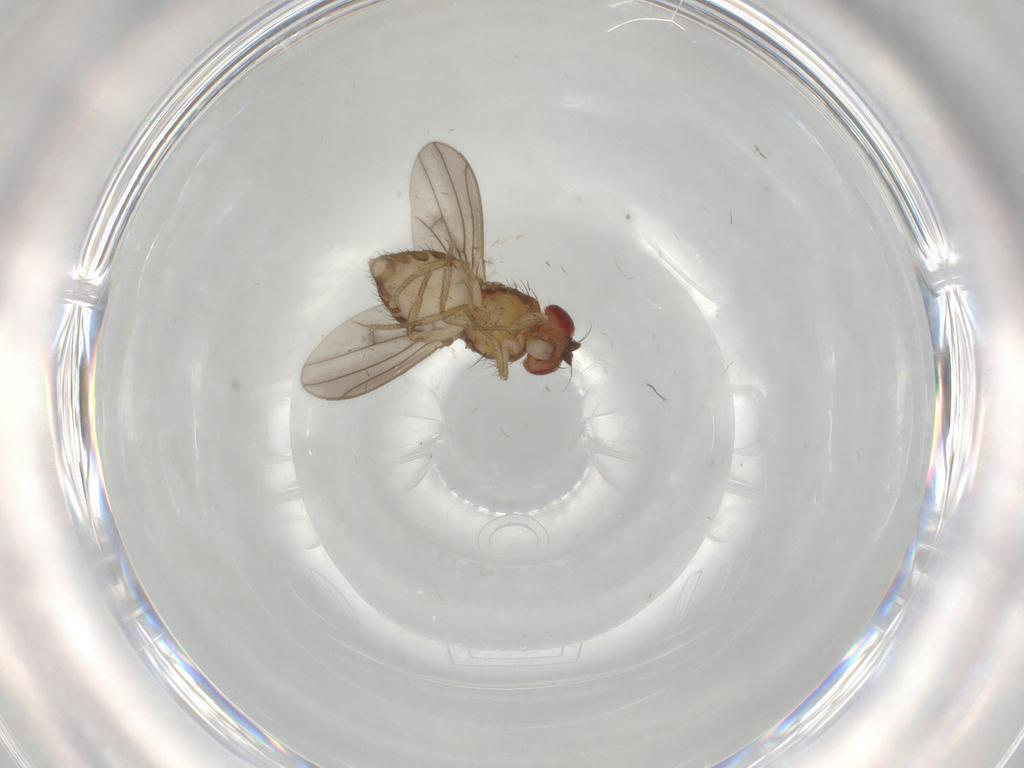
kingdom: Animalia
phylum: Arthropoda
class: Insecta
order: Diptera
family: Drosophilidae
